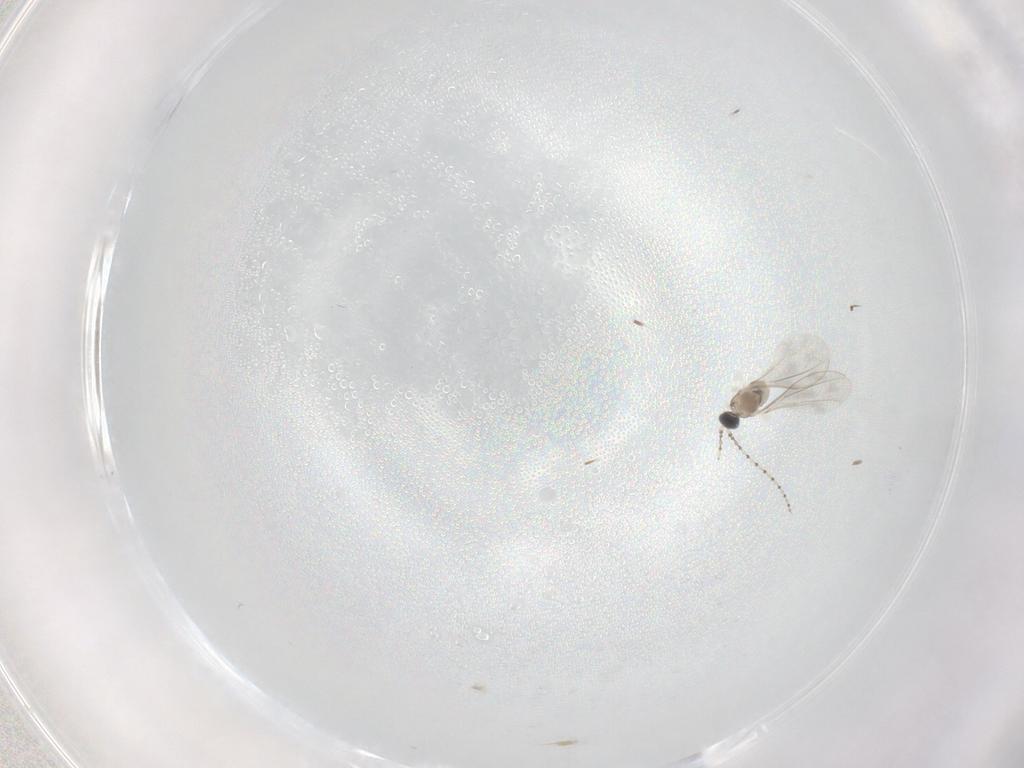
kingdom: Animalia
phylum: Arthropoda
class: Insecta
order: Diptera
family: Cecidomyiidae
